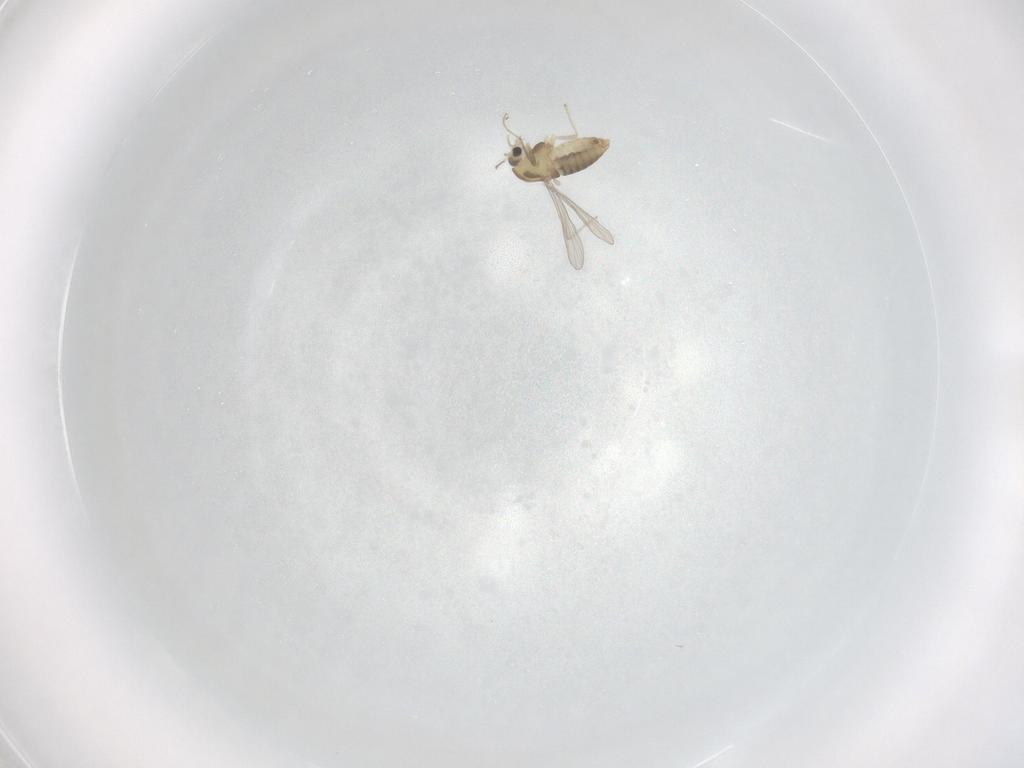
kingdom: Animalia
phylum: Arthropoda
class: Insecta
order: Diptera
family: Chironomidae
